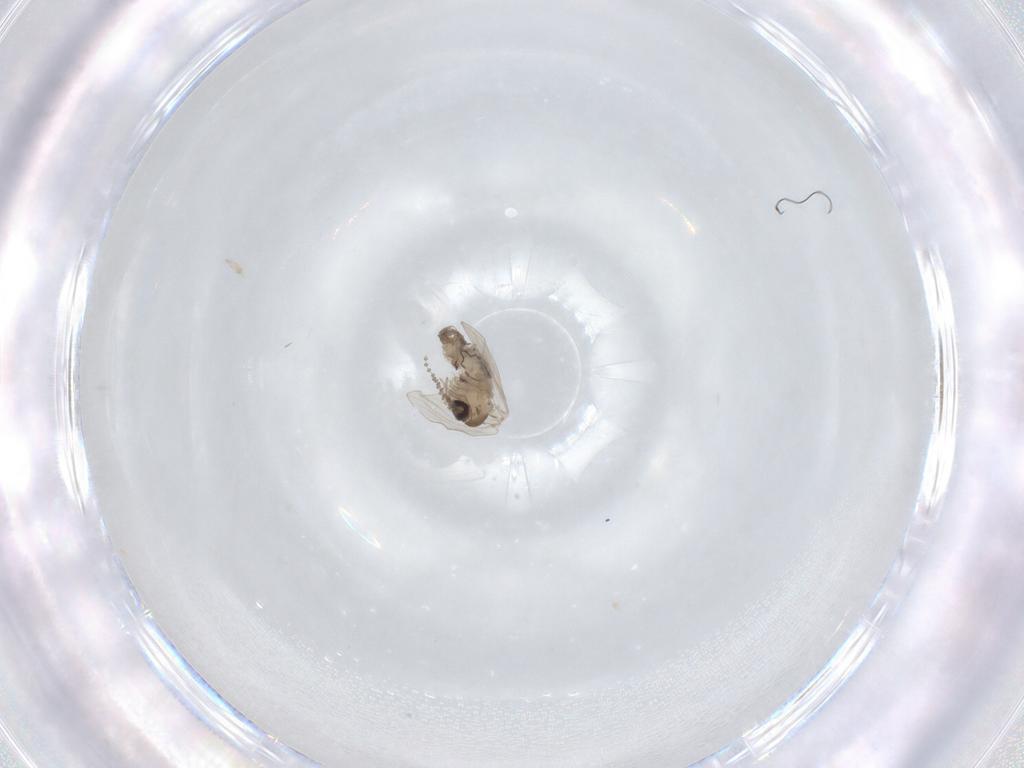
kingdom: Animalia
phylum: Arthropoda
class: Insecta
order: Diptera
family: Psychodidae
